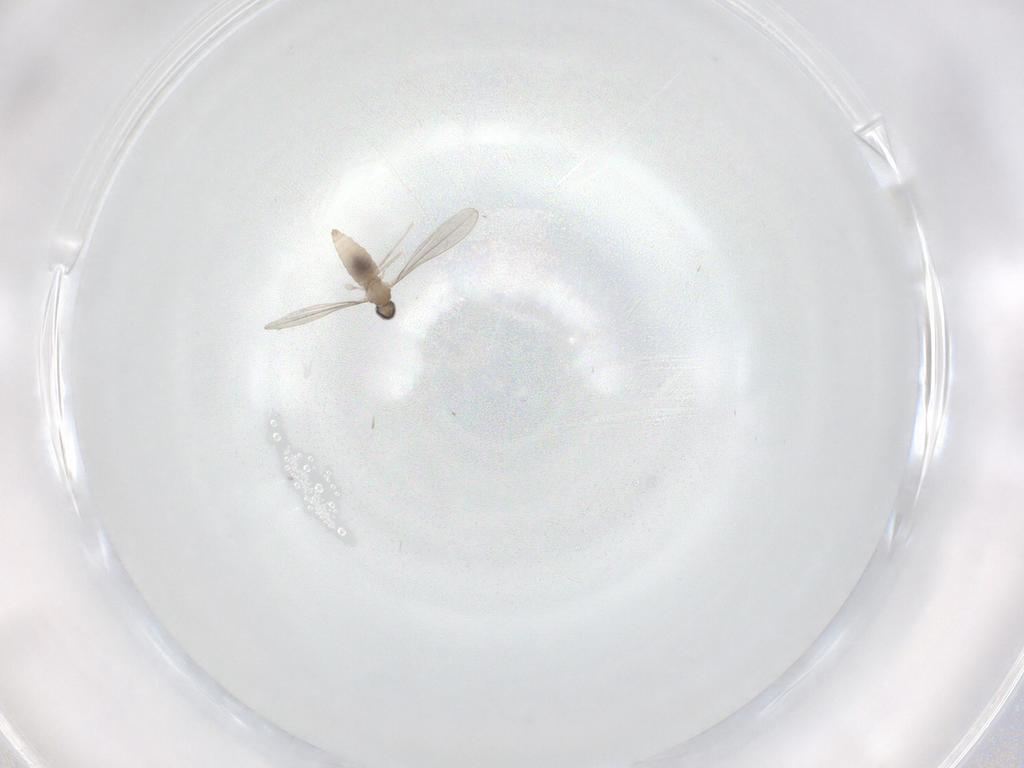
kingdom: Animalia
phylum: Arthropoda
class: Insecta
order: Diptera
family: Cecidomyiidae
